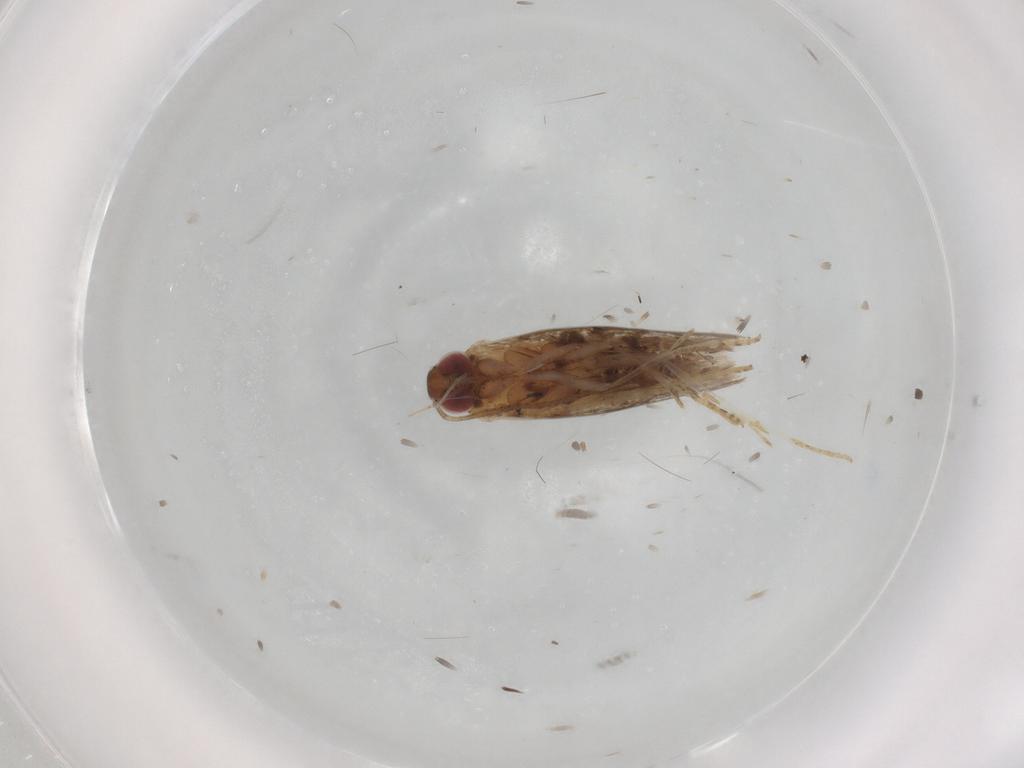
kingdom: Animalia
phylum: Arthropoda
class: Insecta
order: Lepidoptera
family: Crambidae
